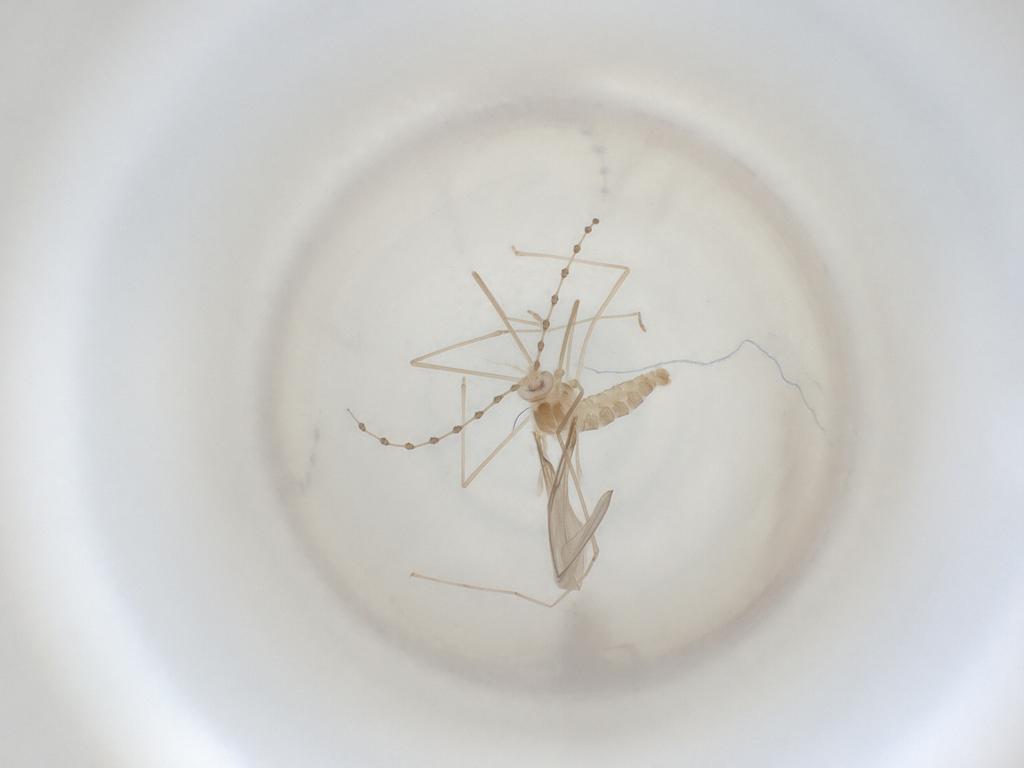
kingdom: Animalia
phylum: Arthropoda
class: Insecta
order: Diptera
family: Cecidomyiidae
